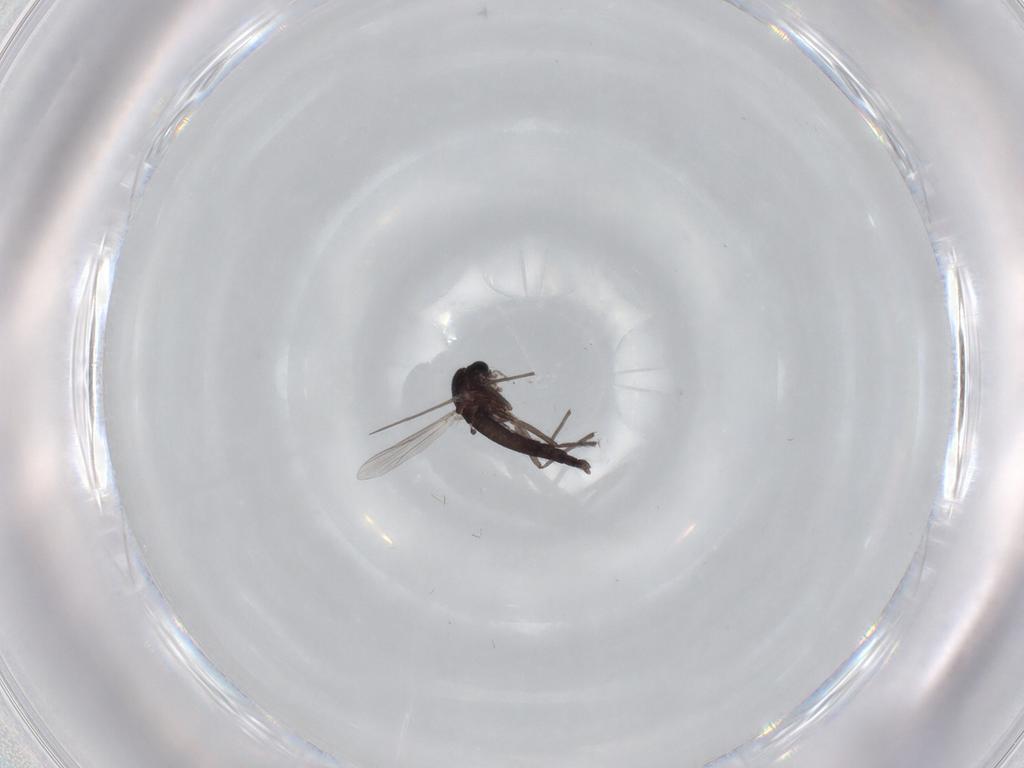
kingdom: Animalia
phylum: Arthropoda
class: Insecta
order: Diptera
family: Chironomidae
